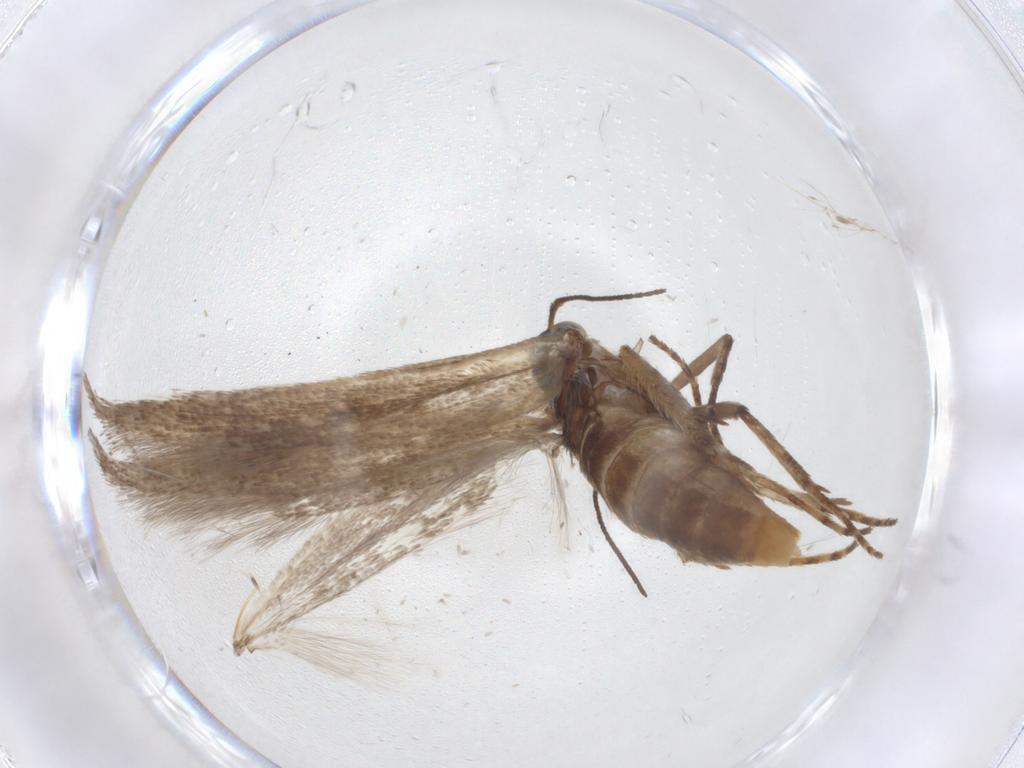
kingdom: Animalia
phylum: Arthropoda
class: Insecta
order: Lepidoptera
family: Crambidae
